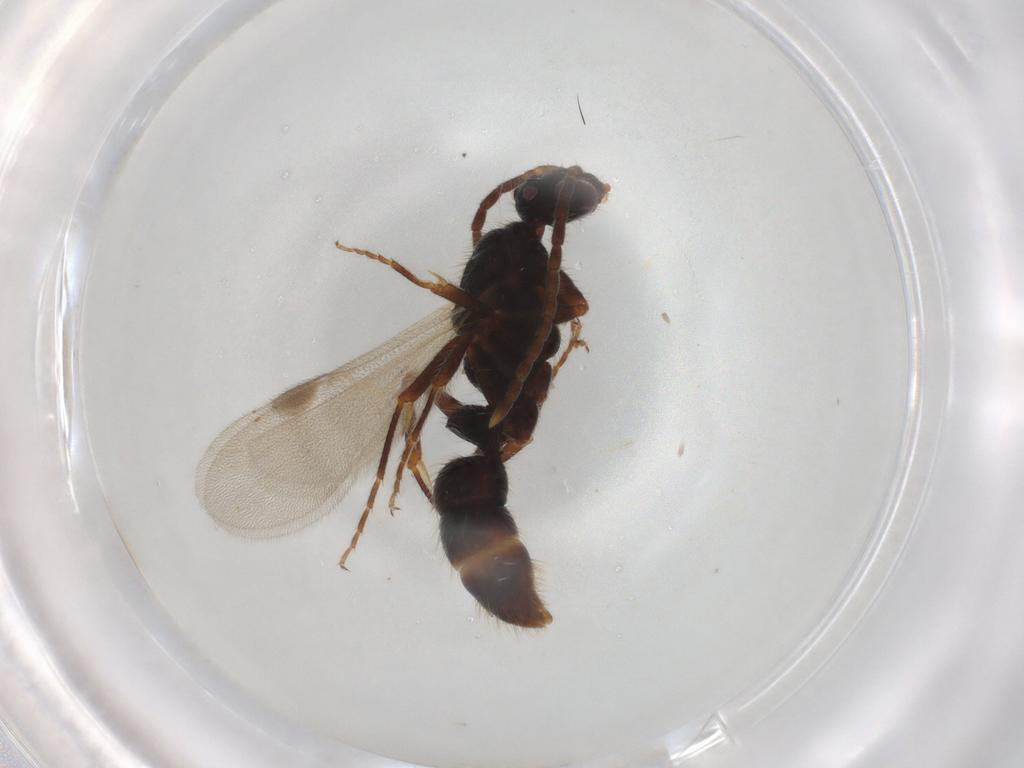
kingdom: Animalia
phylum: Arthropoda
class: Insecta
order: Hymenoptera
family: Formicidae
